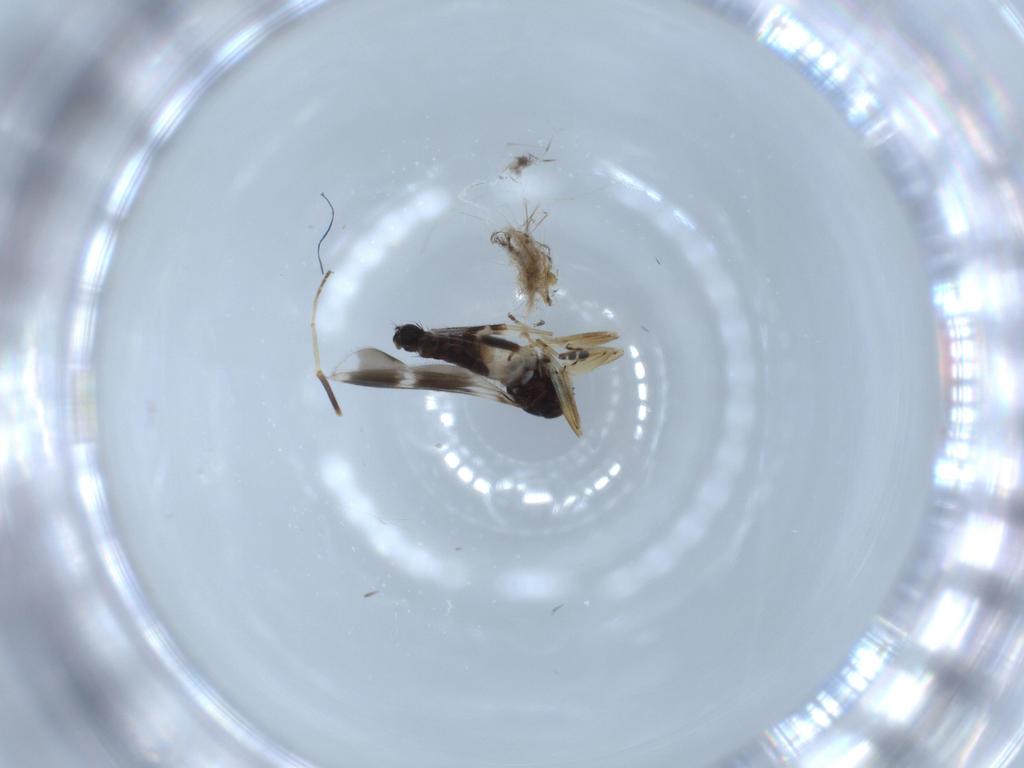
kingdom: Animalia
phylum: Arthropoda
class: Insecta
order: Diptera
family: Hybotidae
